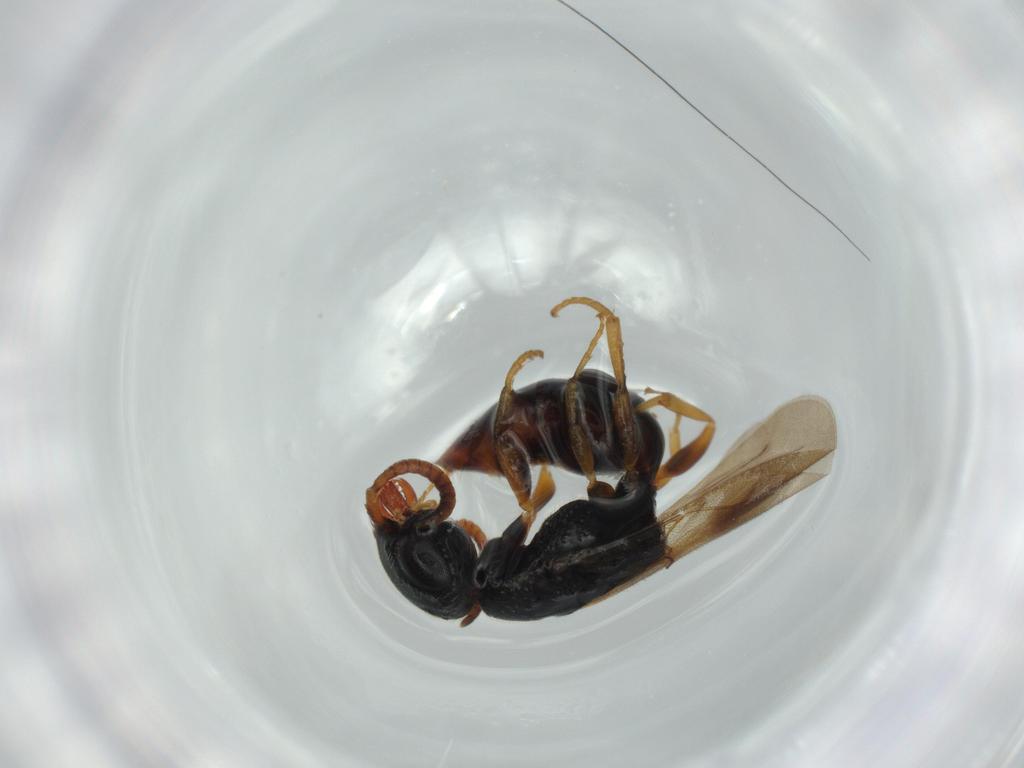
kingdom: Animalia
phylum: Arthropoda
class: Insecta
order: Hymenoptera
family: Bethylidae
